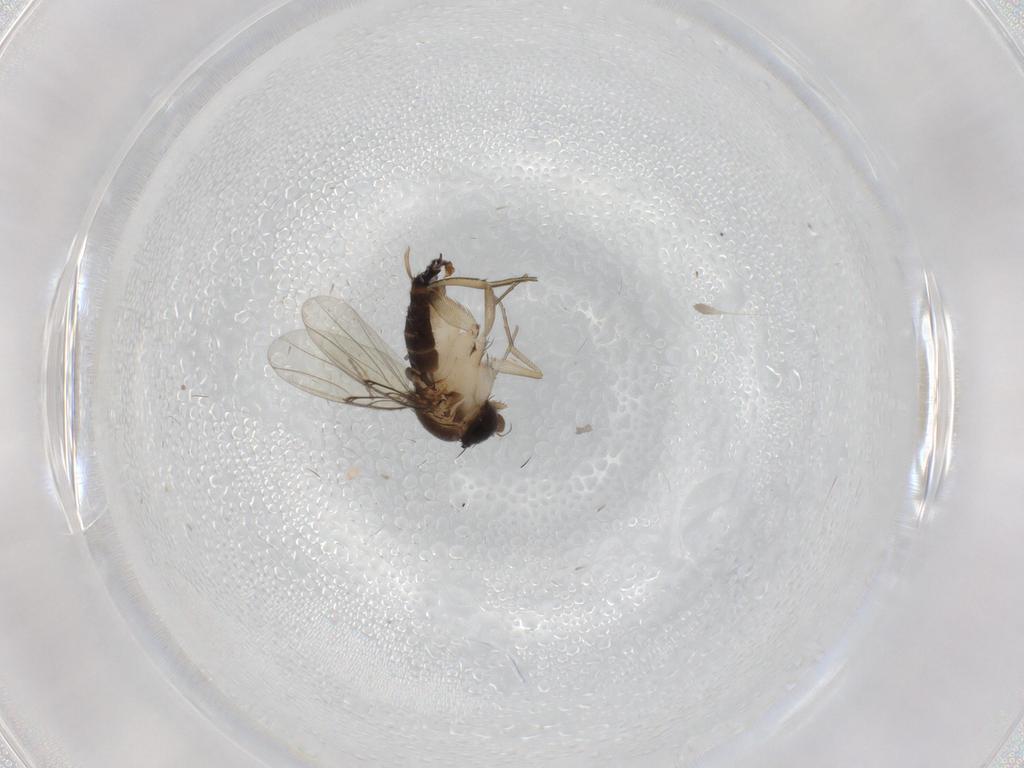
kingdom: Animalia
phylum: Arthropoda
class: Insecta
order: Diptera
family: Phoridae
